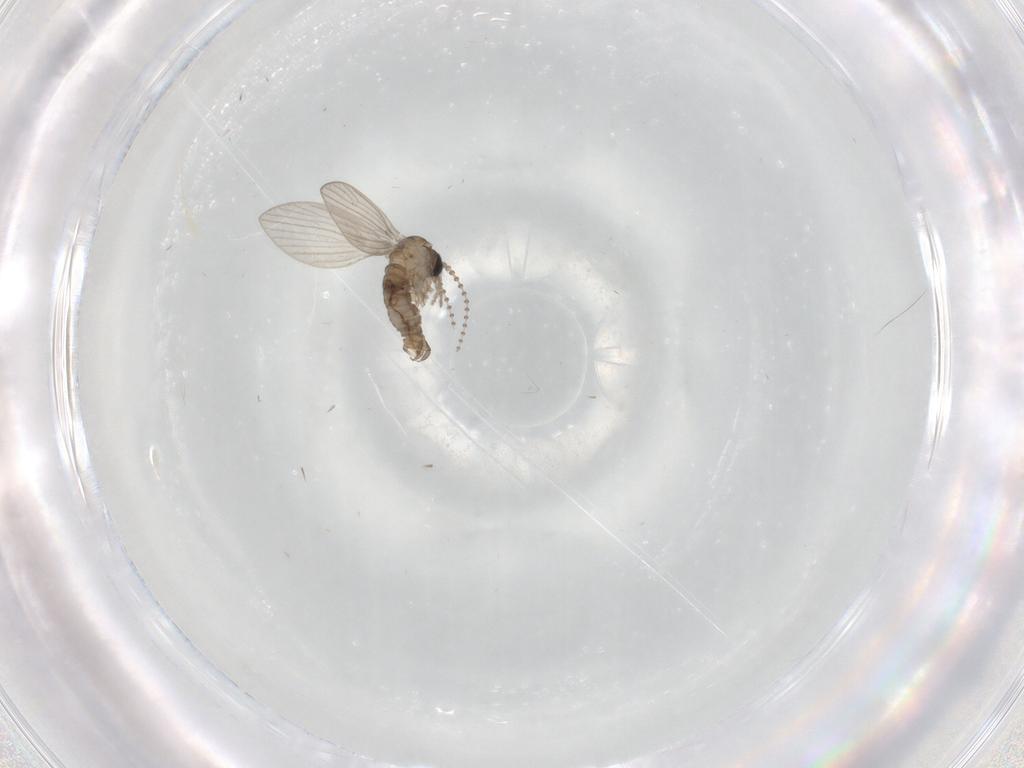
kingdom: Animalia
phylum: Arthropoda
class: Insecta
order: Diptera
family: Psychodidae
